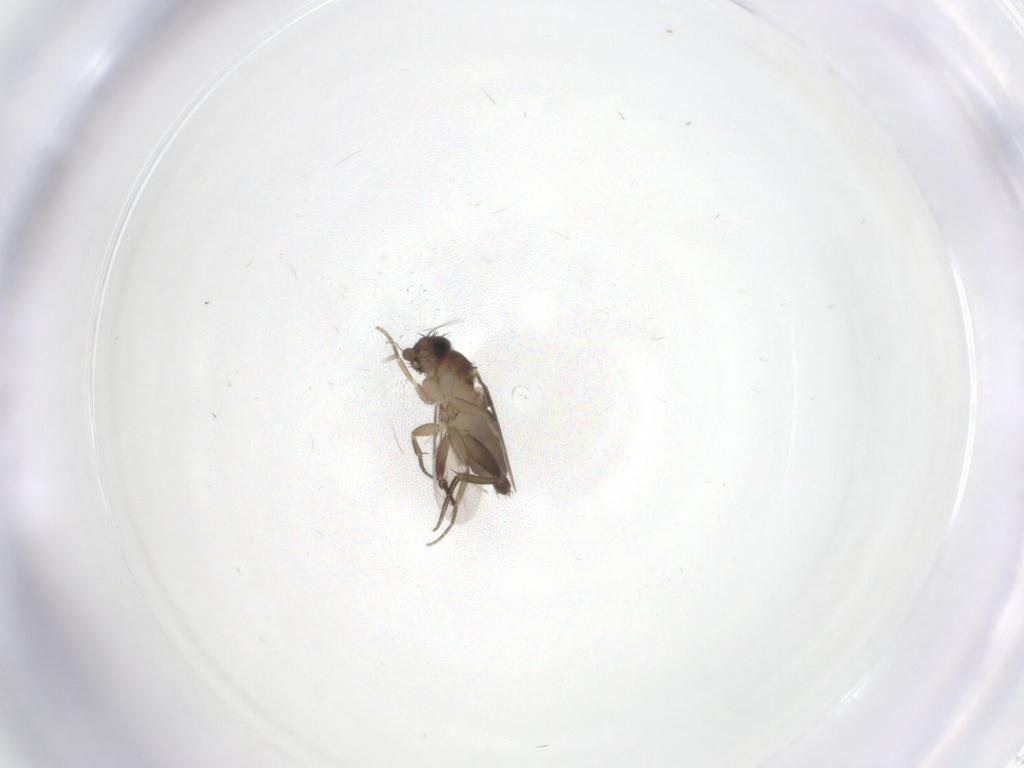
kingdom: Animalia
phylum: Arthropoda
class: Insecta
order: Diptera
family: Phoridae
